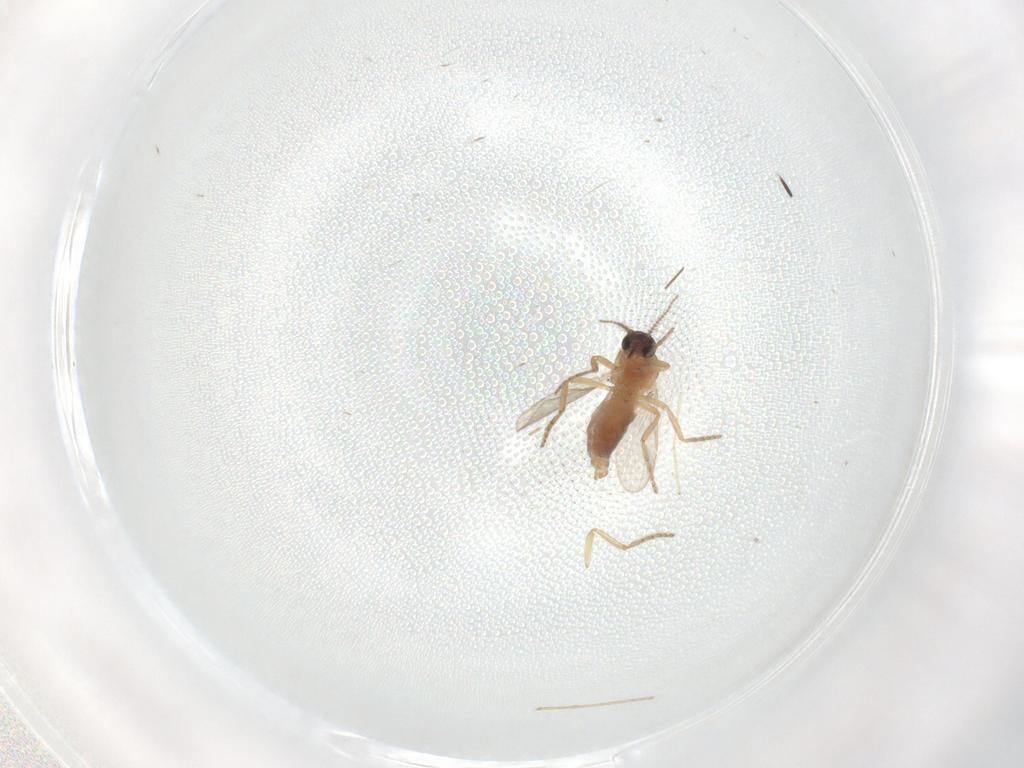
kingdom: Animalia
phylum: Arthropoda
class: Insecta
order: Diptera
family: Ceratopogonidae
